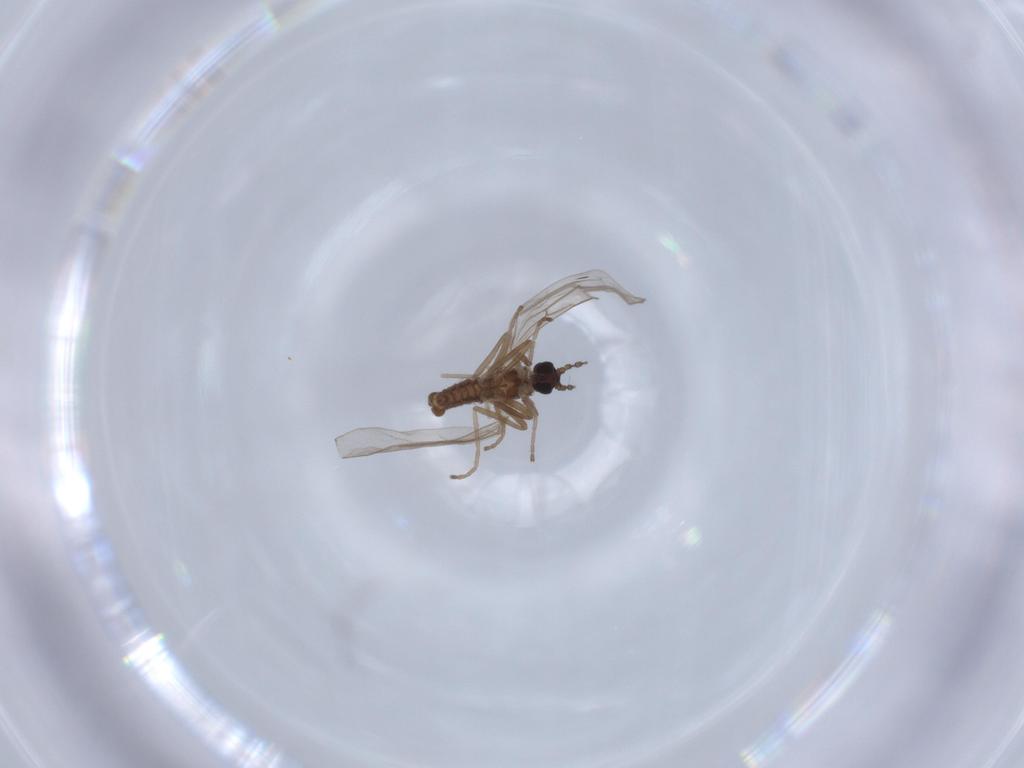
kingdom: Animalia
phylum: Arthropoda
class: Insecta
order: Diptera
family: Cecidomyiidae
